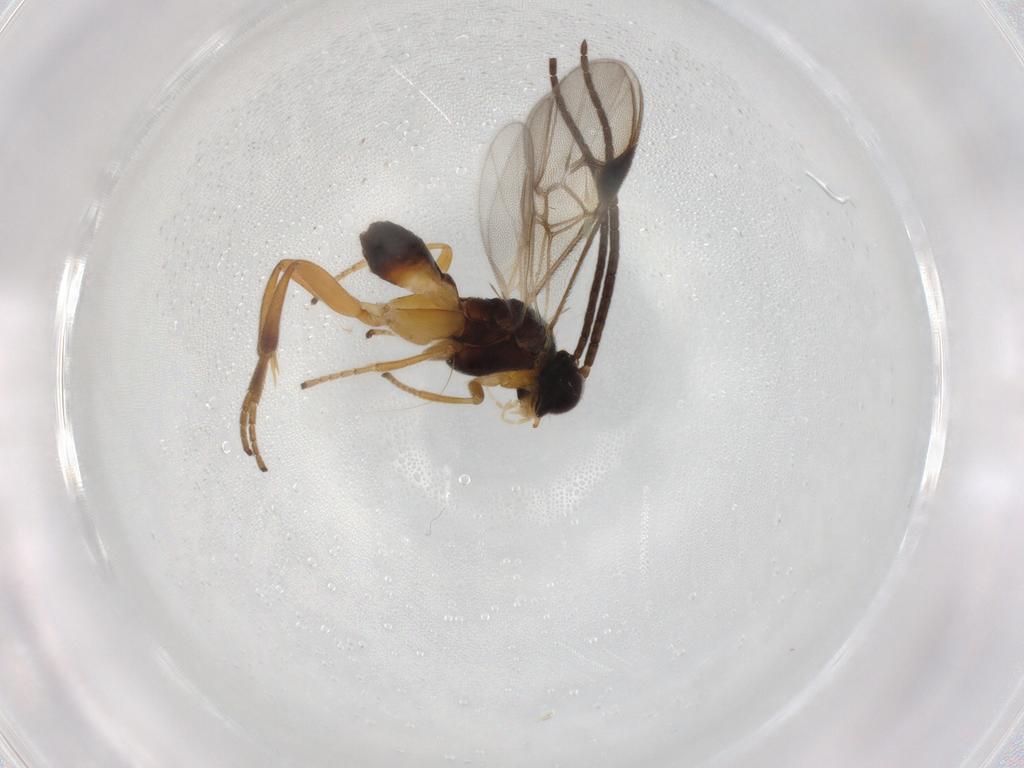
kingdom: Animalia
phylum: Arthropoda
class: Insecta
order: Hymenoptera
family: Braconidae
